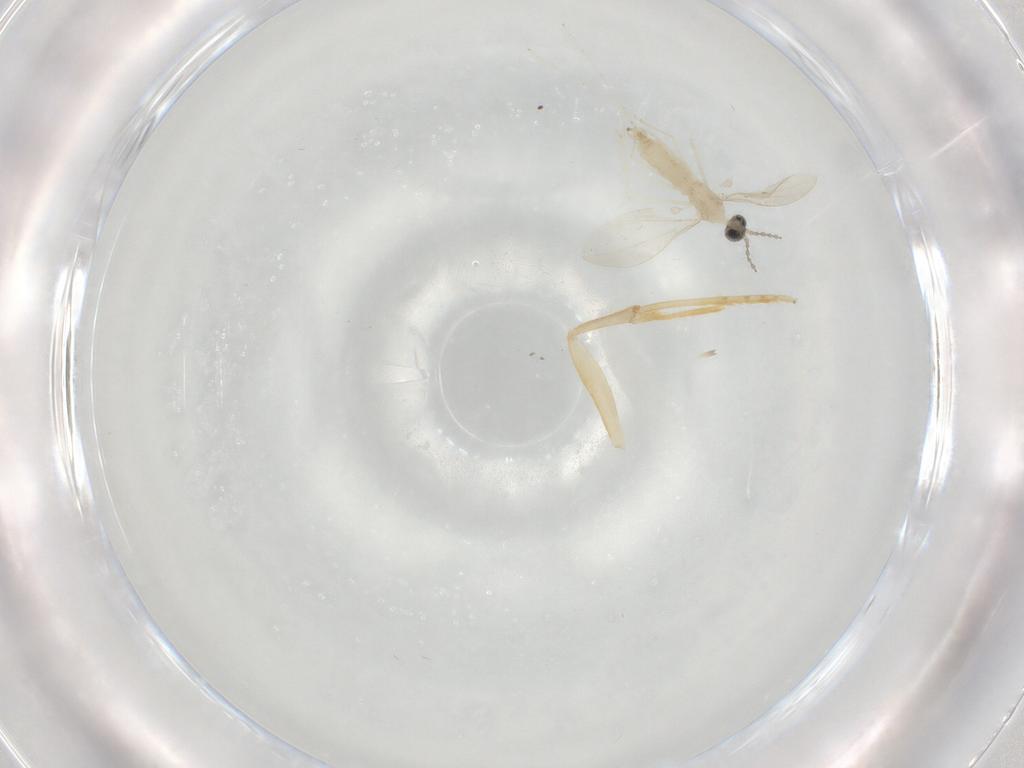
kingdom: Animalia
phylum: Arthropoda
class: Insecta
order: Diptera
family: Cecidomyiidae
